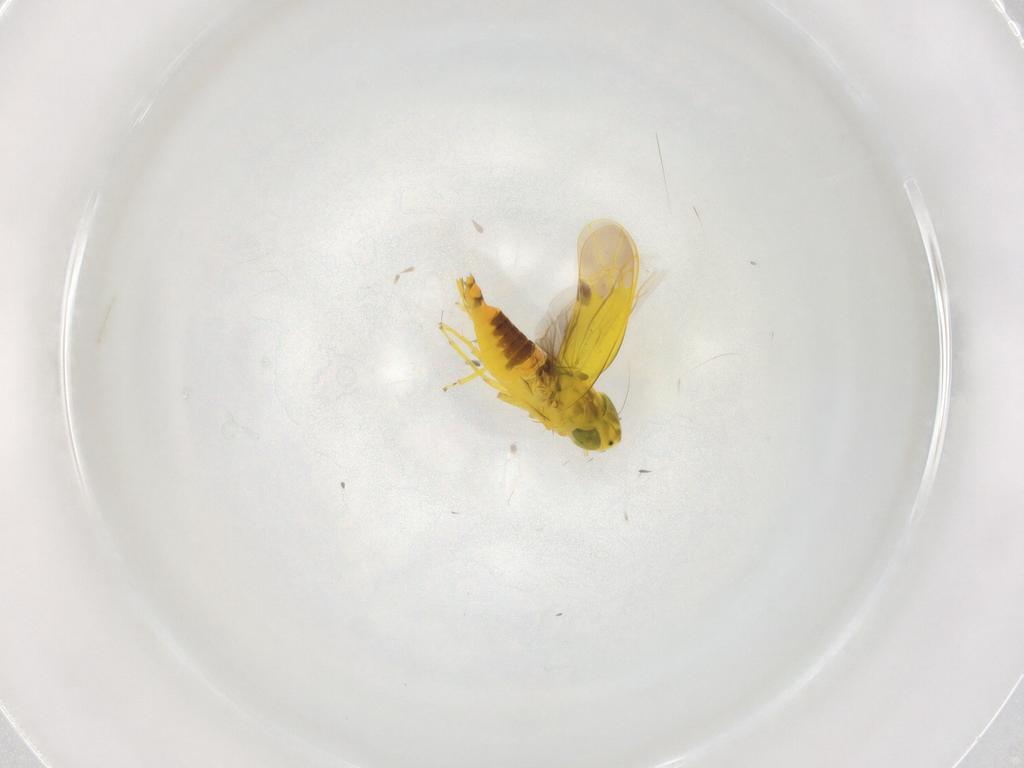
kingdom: Animalia
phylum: Arthropoda
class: Insecta
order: Hemiptera
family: Cicadellidae
